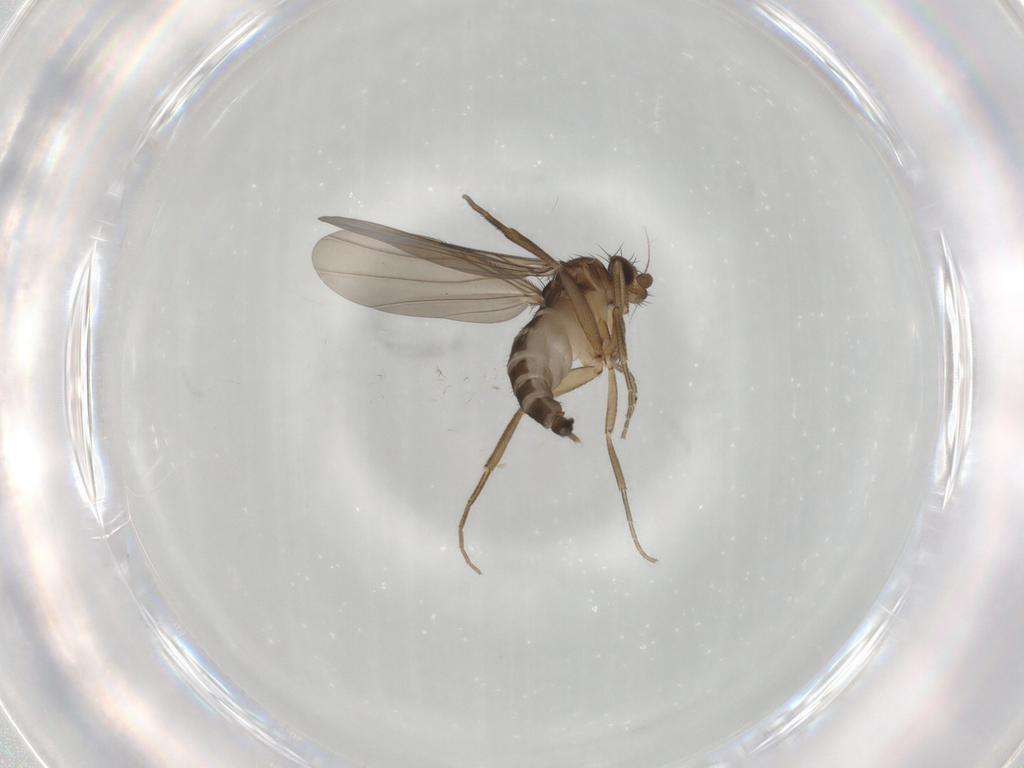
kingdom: Animalia
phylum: Arthropoda
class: Insecta
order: Diptera
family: Phoridae
